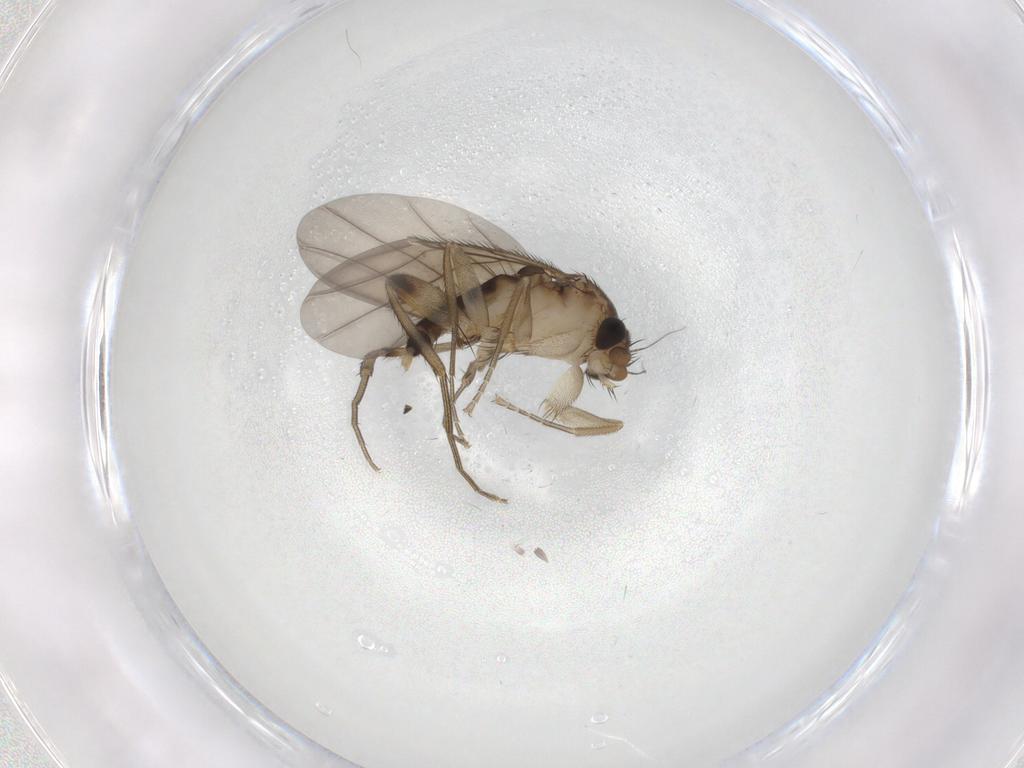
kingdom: Animalia
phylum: Arthropoda
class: Insecta
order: Diptera
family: Phoridae
